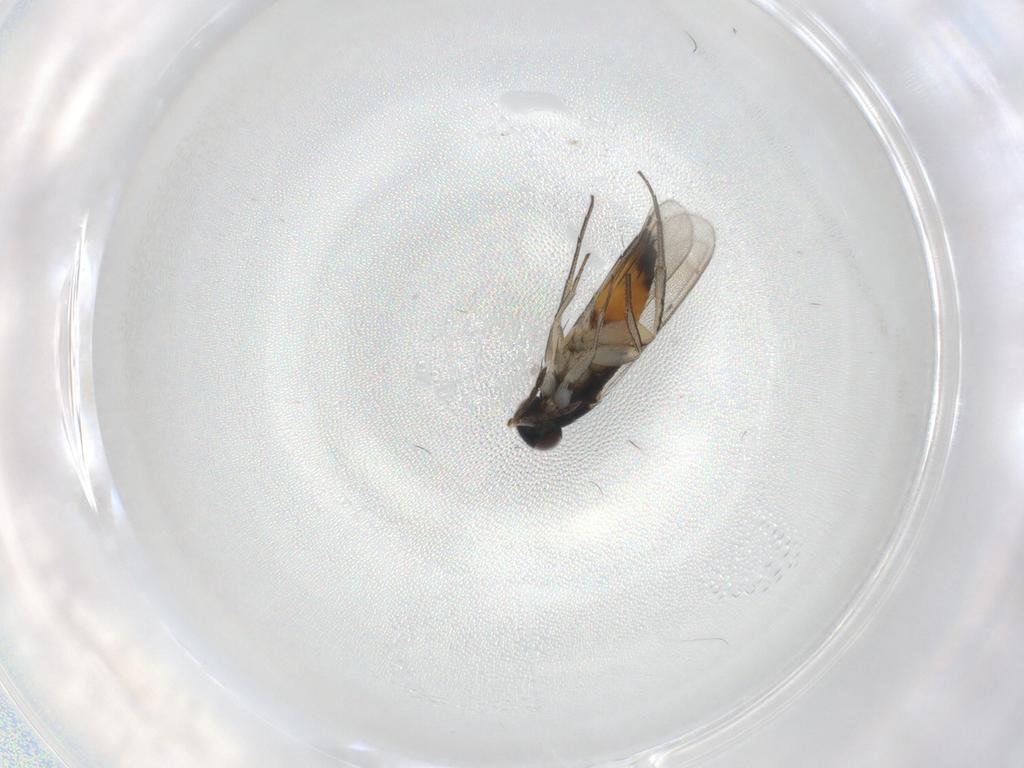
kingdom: Animalia
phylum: Arthropoda
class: Insecta
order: Hymenoptera
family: Eulophidae
